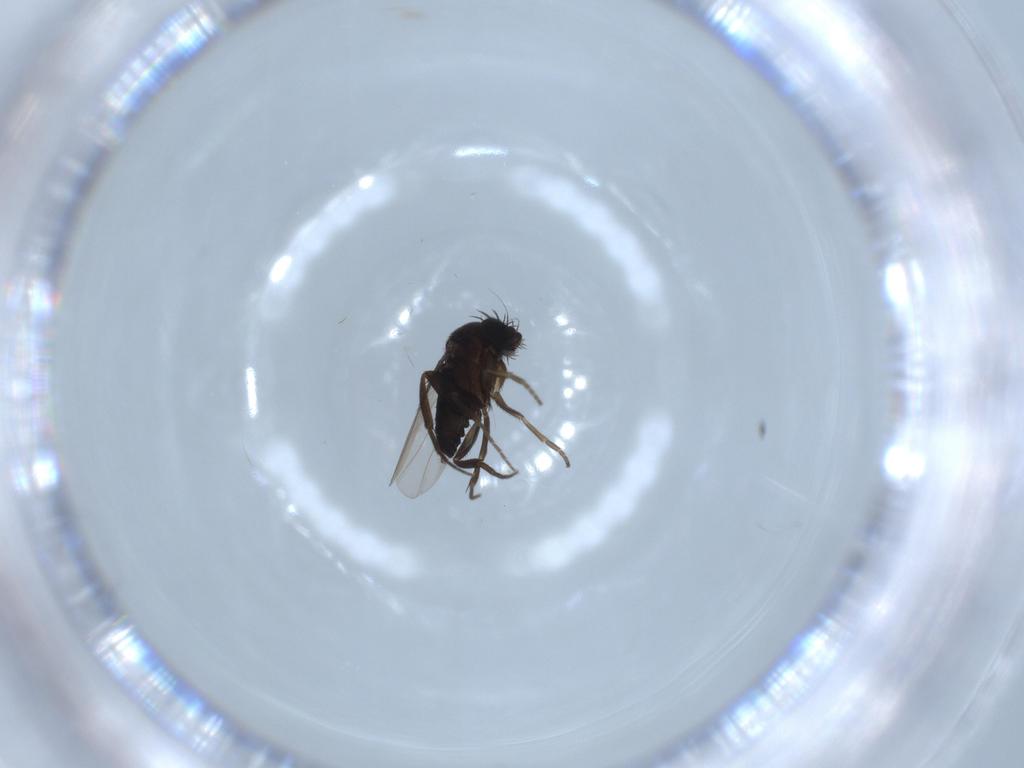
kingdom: Animalia
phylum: Arthropoda
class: Insecta
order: Diptera
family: Phoridae
